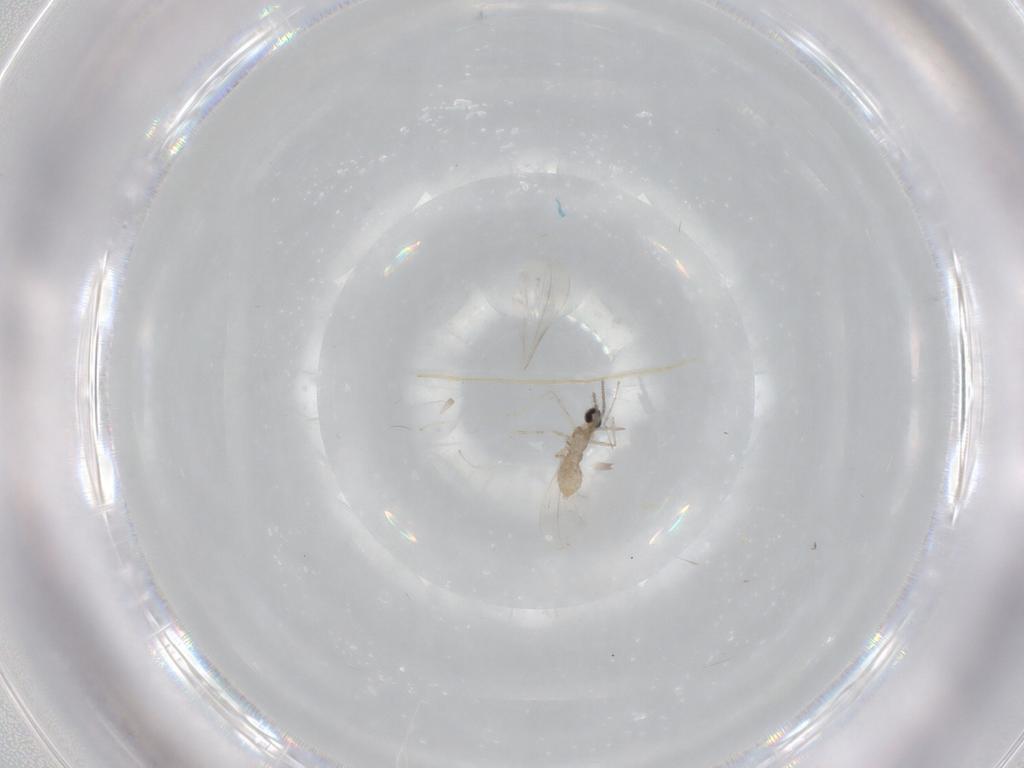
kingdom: Animalia
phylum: Arthropoda
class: Insecta
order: Diptera
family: Cecidomyiidae
